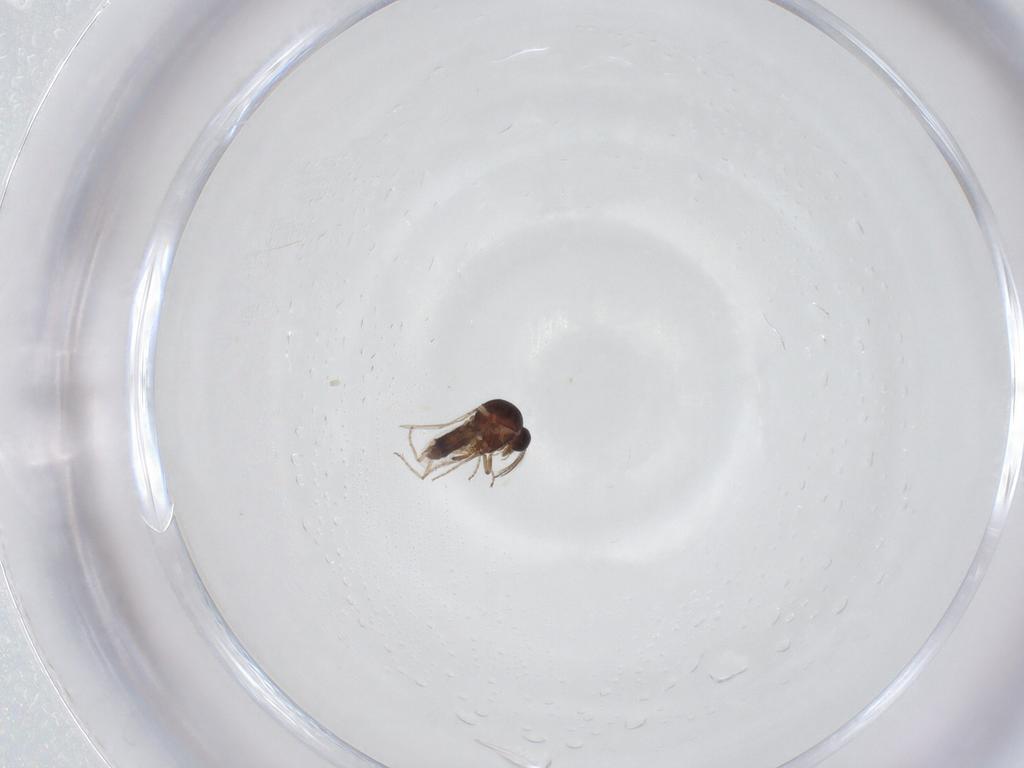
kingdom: Animalia
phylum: Arthropoda
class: Insecta
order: Diptera
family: Ceratopogonidae
